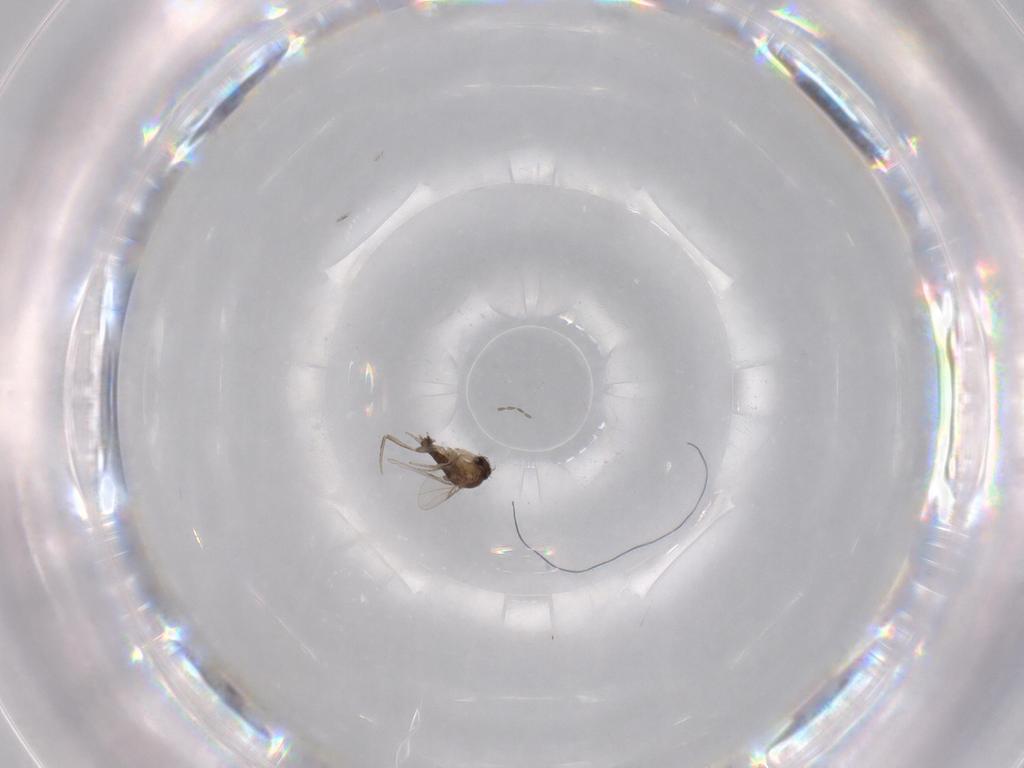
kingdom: Animalia
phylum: Arthropoda
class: Insecta
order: Diptera
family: Phoridae
